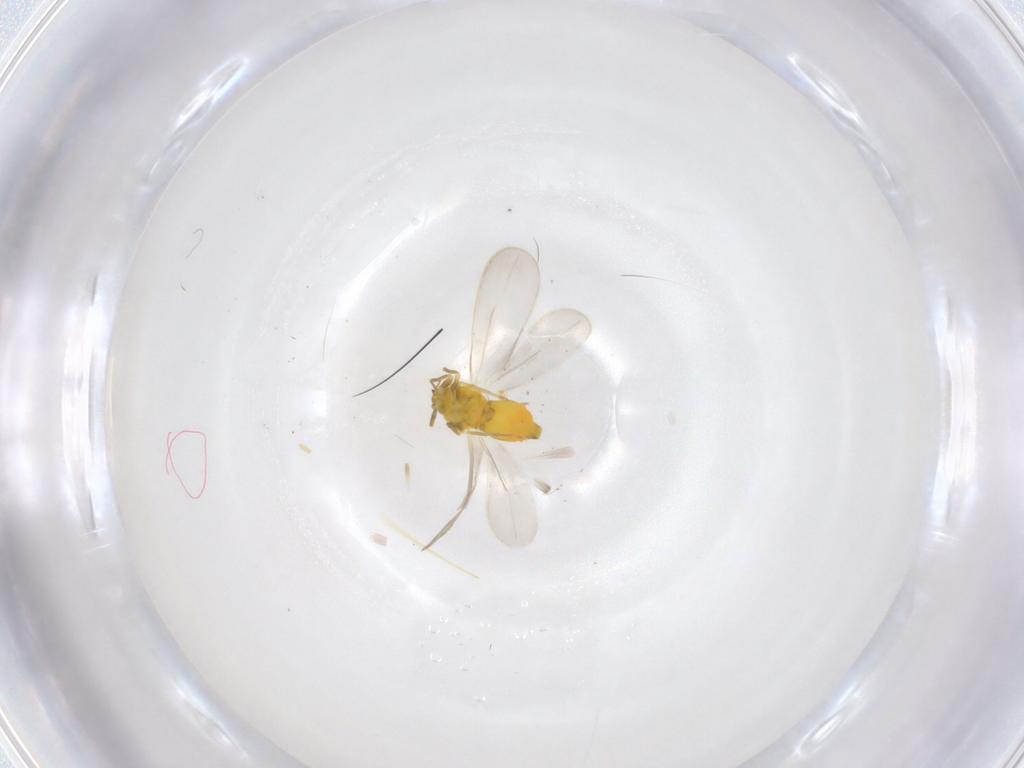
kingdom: Animalia
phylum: Arthropoda
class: Insecta
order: Hemiptera
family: Aleyrodidae
